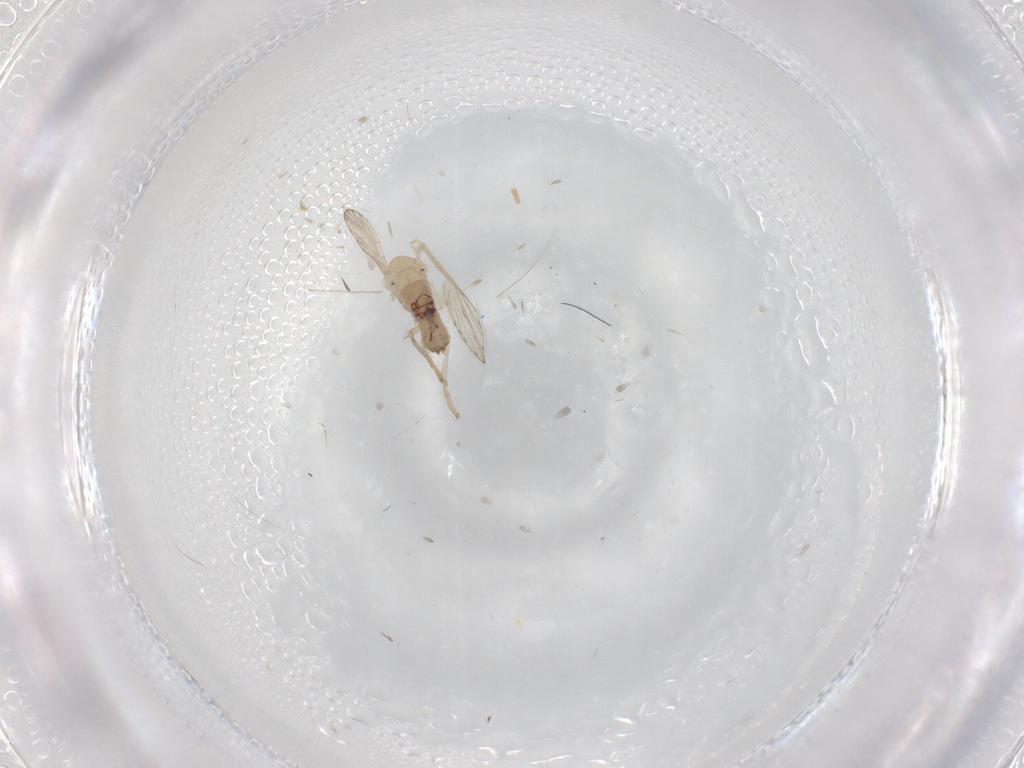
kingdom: Animalia
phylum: Arthropoda
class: Insecta
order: Diptera
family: Psychodidae
